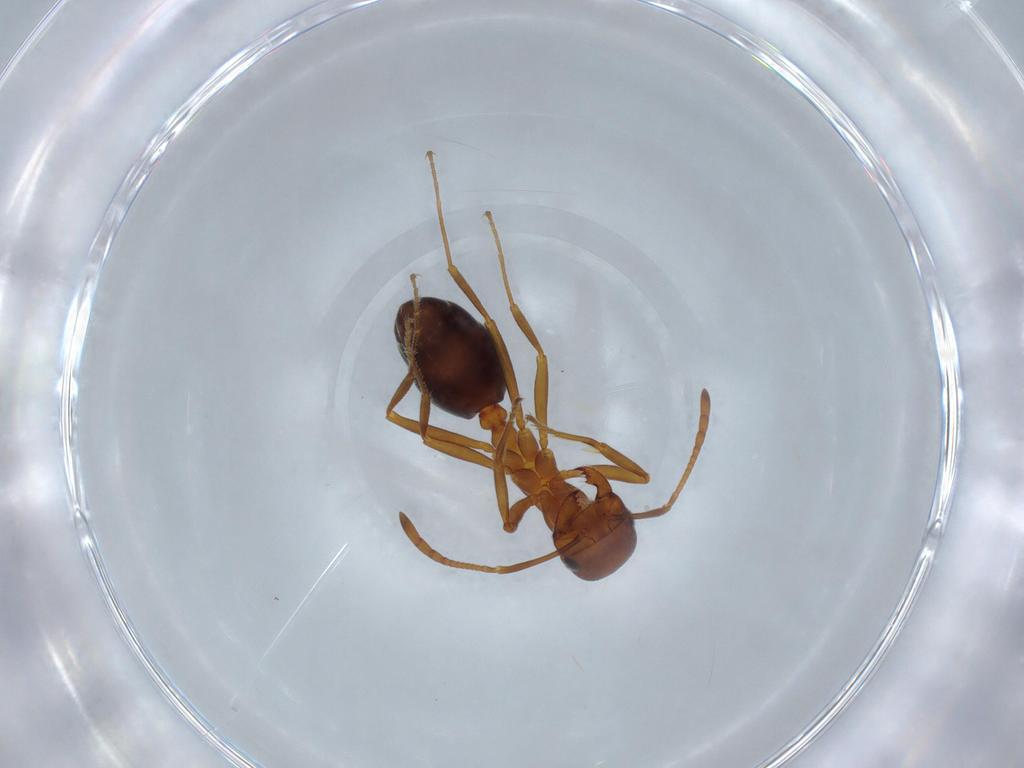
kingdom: Animalia
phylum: Arthropoda
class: Insecta
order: Hymenoptera
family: Formicidae
